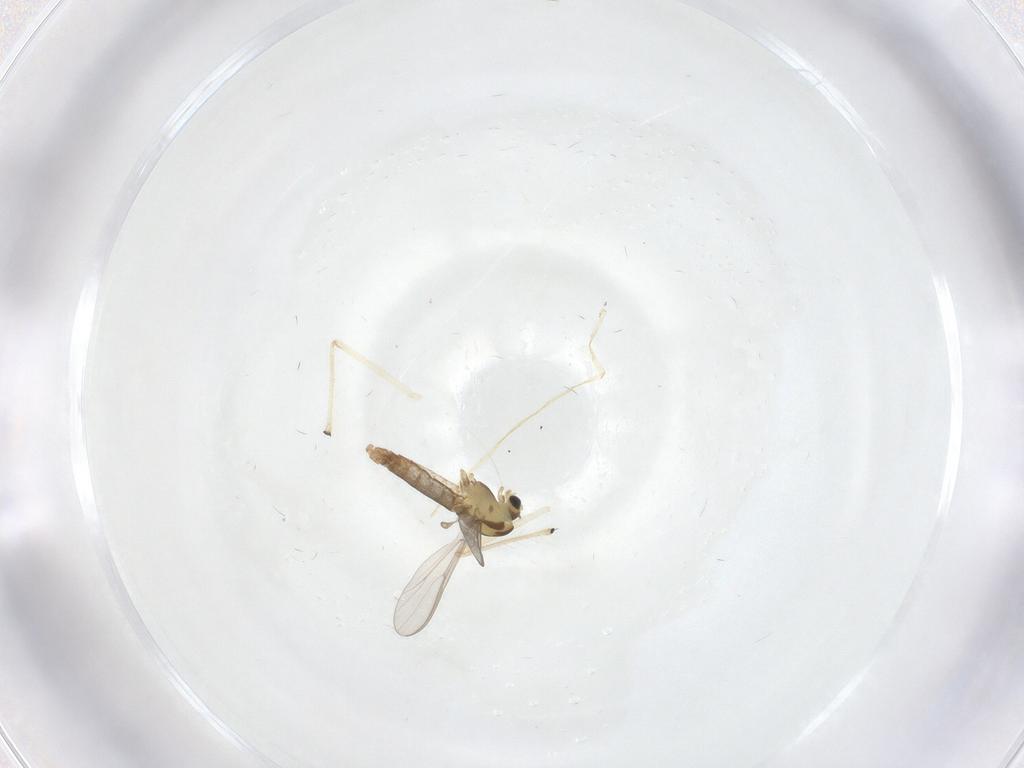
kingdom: Animalia
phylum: Arthropoda
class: Insecta
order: Diptera
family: Chironomidae
